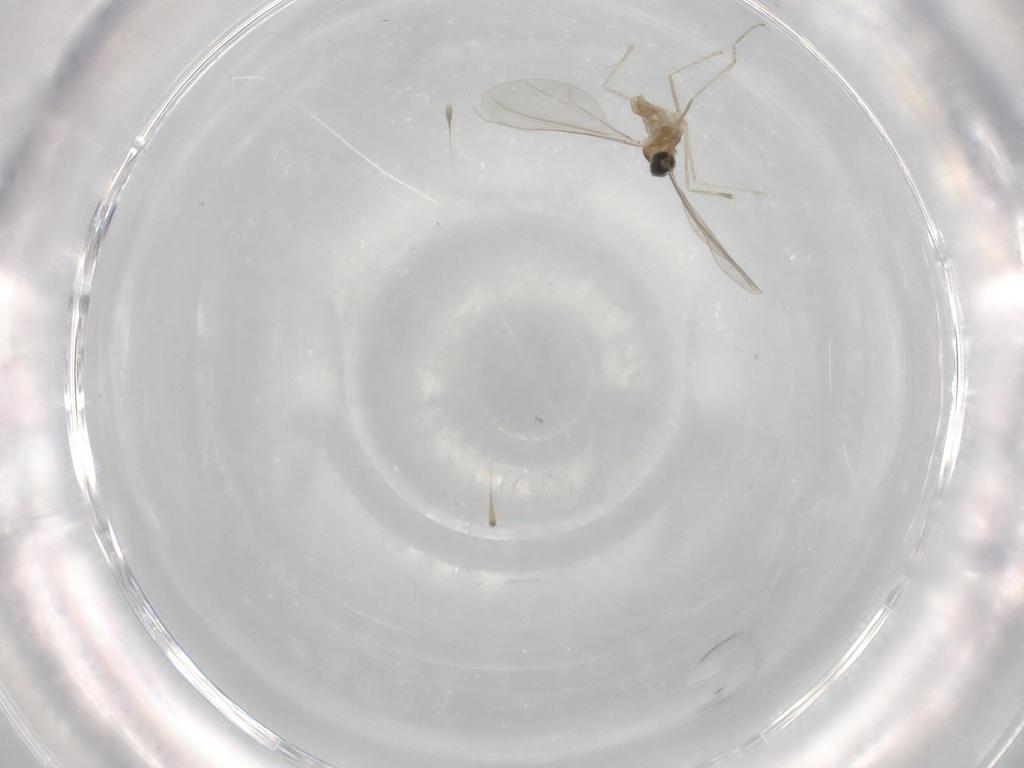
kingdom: Animalia
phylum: Arthropoda
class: Insecta
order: Diptera
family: Cecidomyiidae
